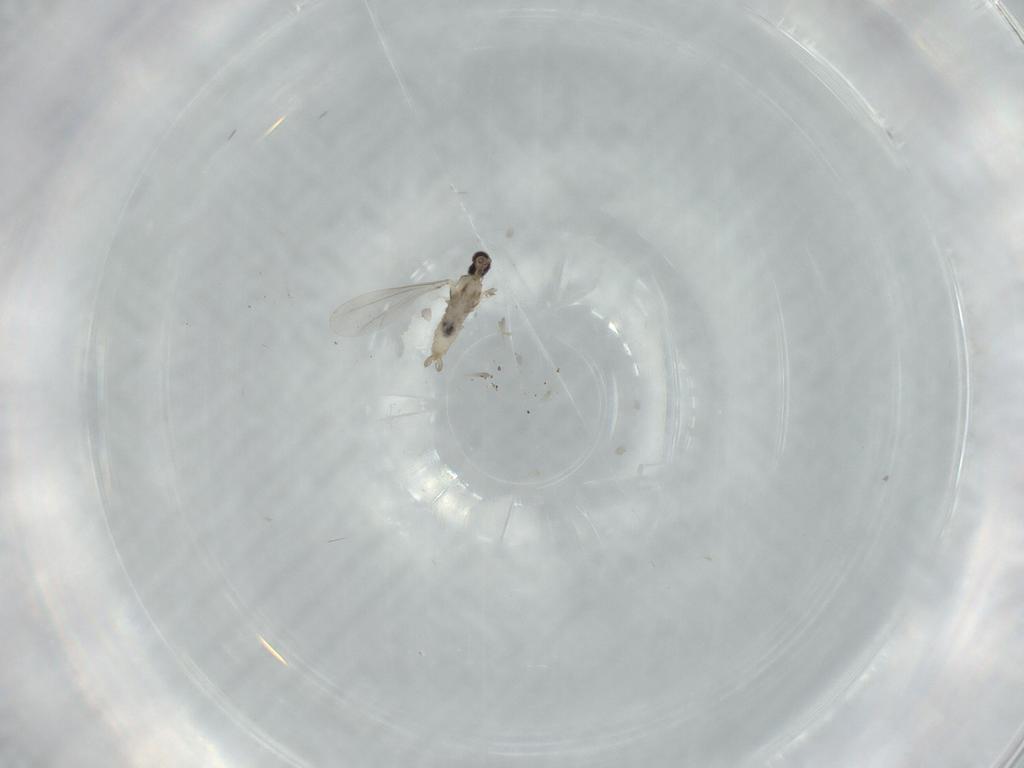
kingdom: Animalia
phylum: Arthropoda
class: Insecta
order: Diptera
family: Cecidomyiidae
